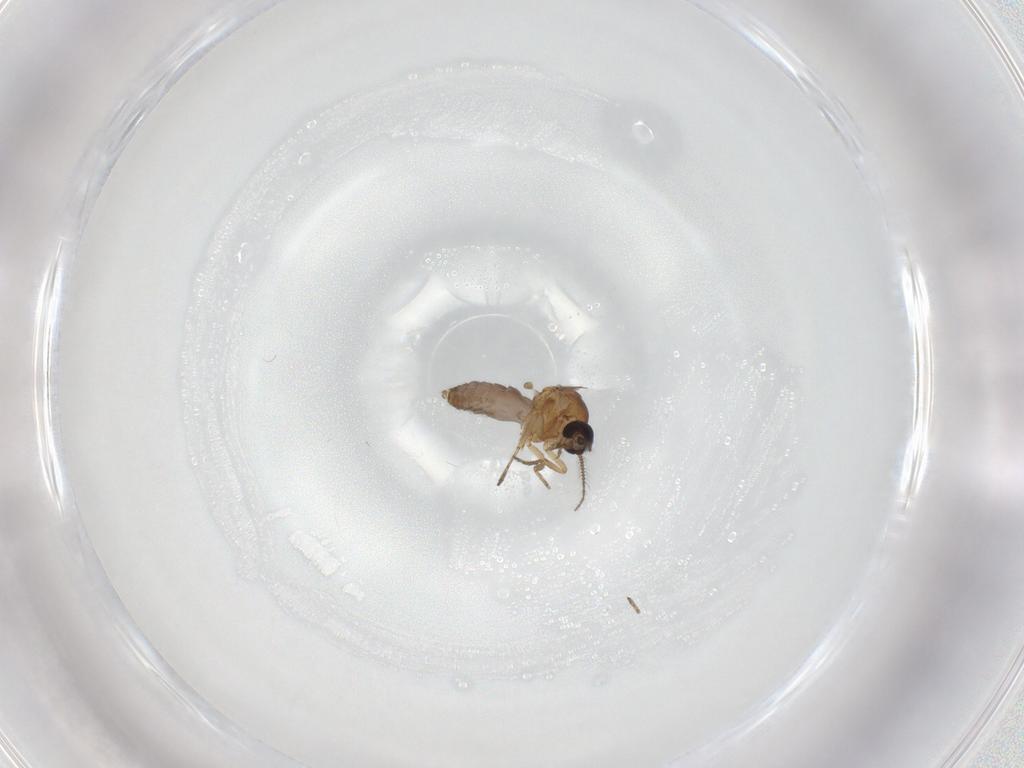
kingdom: Animalia
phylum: Arthropoda
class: Insecta
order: Diptera
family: Ceratopogonidae
